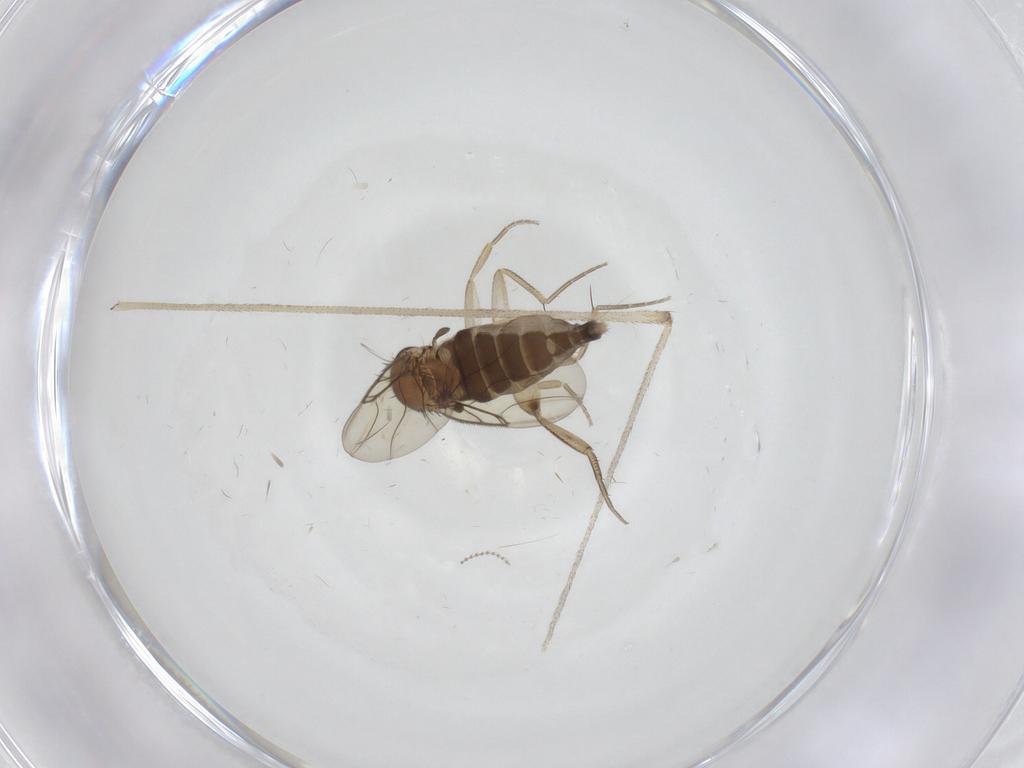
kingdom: Animalia
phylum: Arthropoda
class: Insecta
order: Diptera
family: Phoridae
